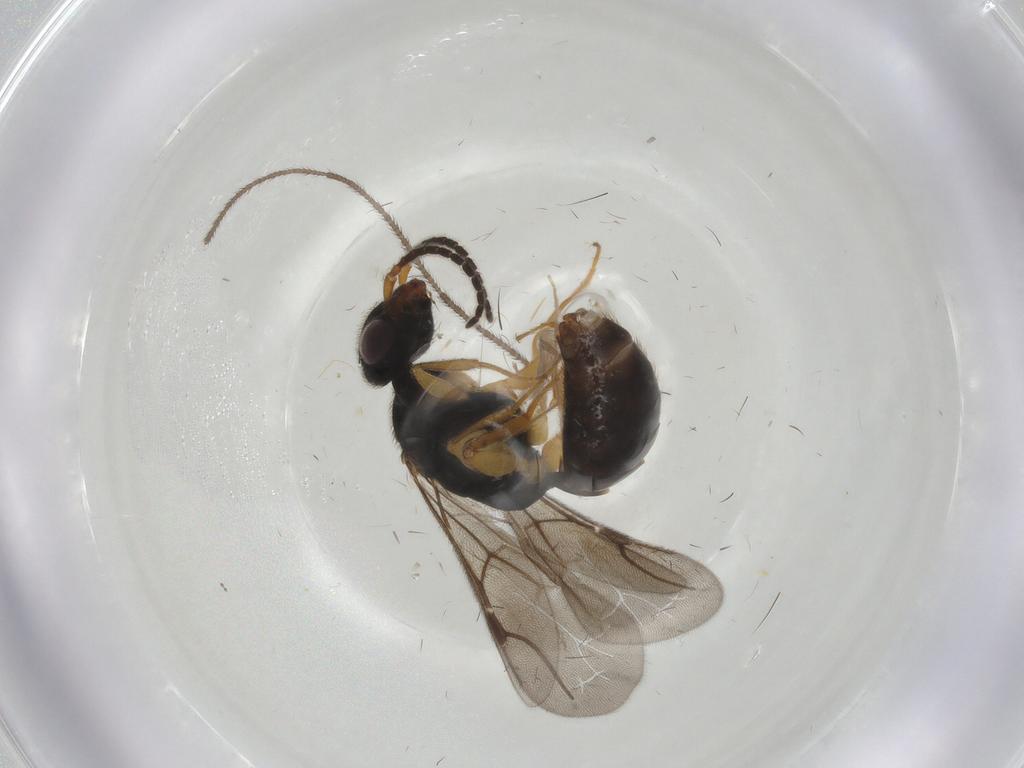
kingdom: Animalia
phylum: Arthropoda
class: Insecta
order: Hymenoptera
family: Bethylidae
